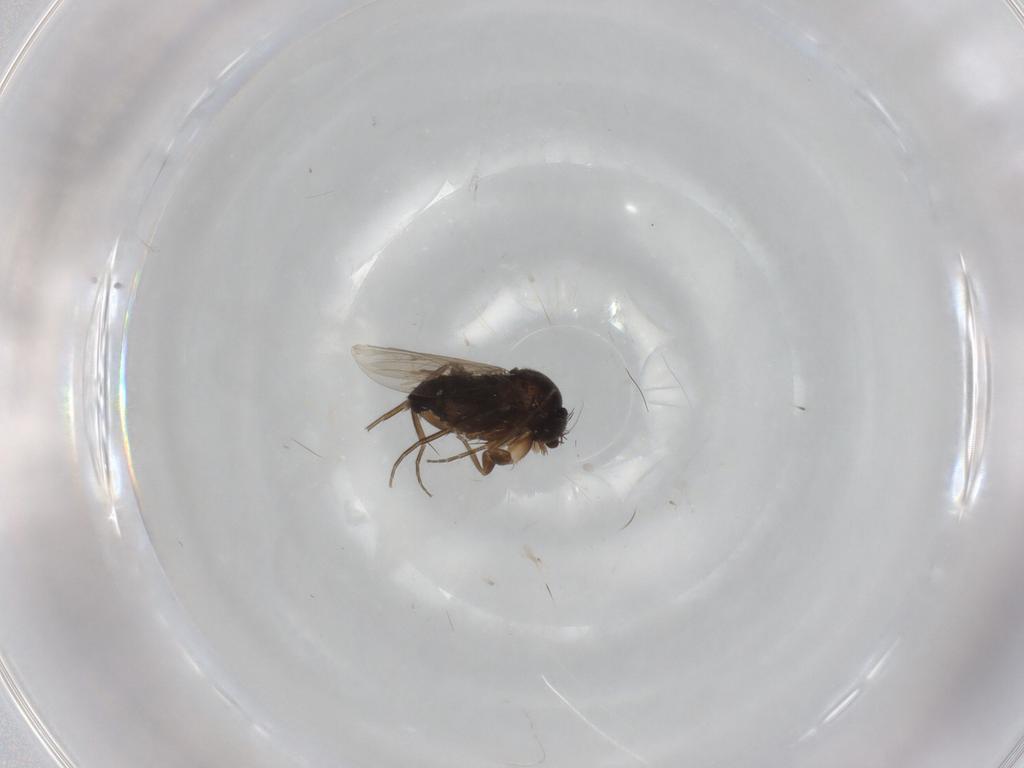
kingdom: Animalia
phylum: Arthropoda
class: Insecta
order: Diptera
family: Phoridae
